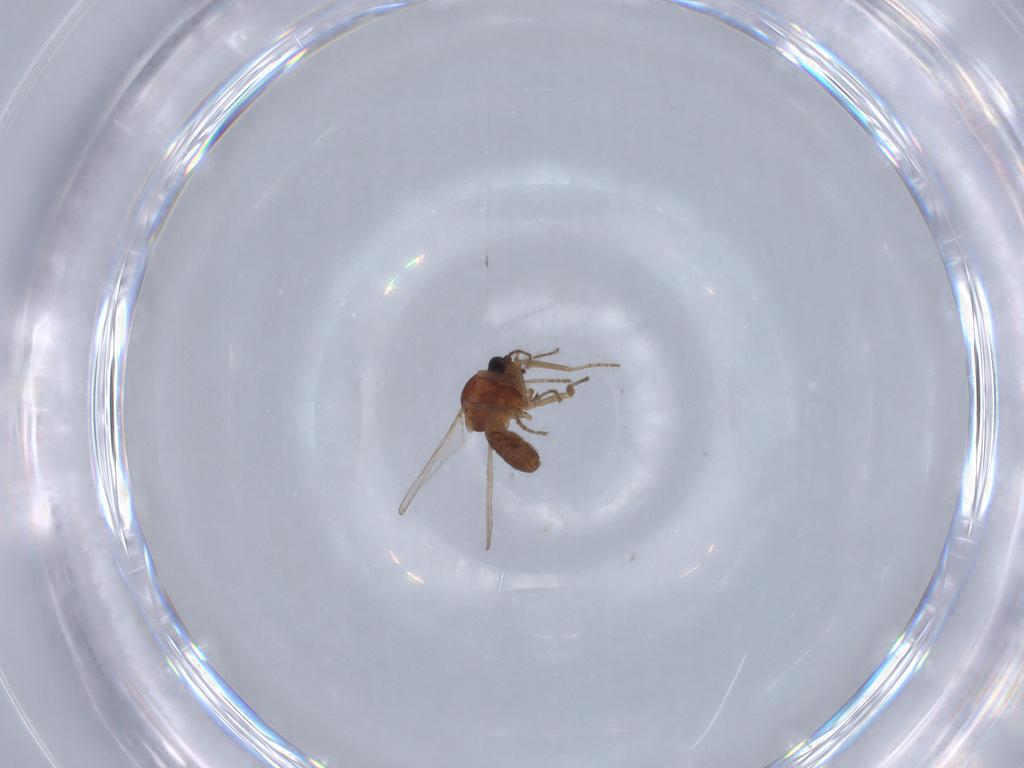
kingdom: Animalia
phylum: Arthropoda
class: Insecta
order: Diptera
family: Ceratopogonidae
